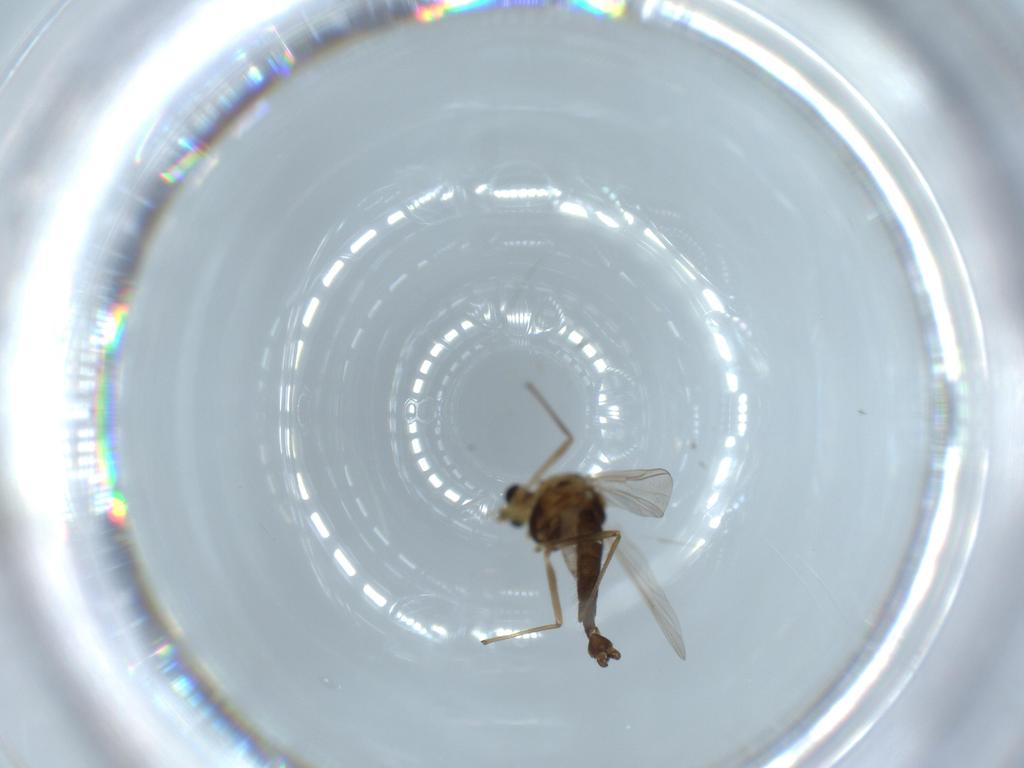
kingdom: Animalia
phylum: Arthropoda
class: Insecta
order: Diptera
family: Chironomidae
